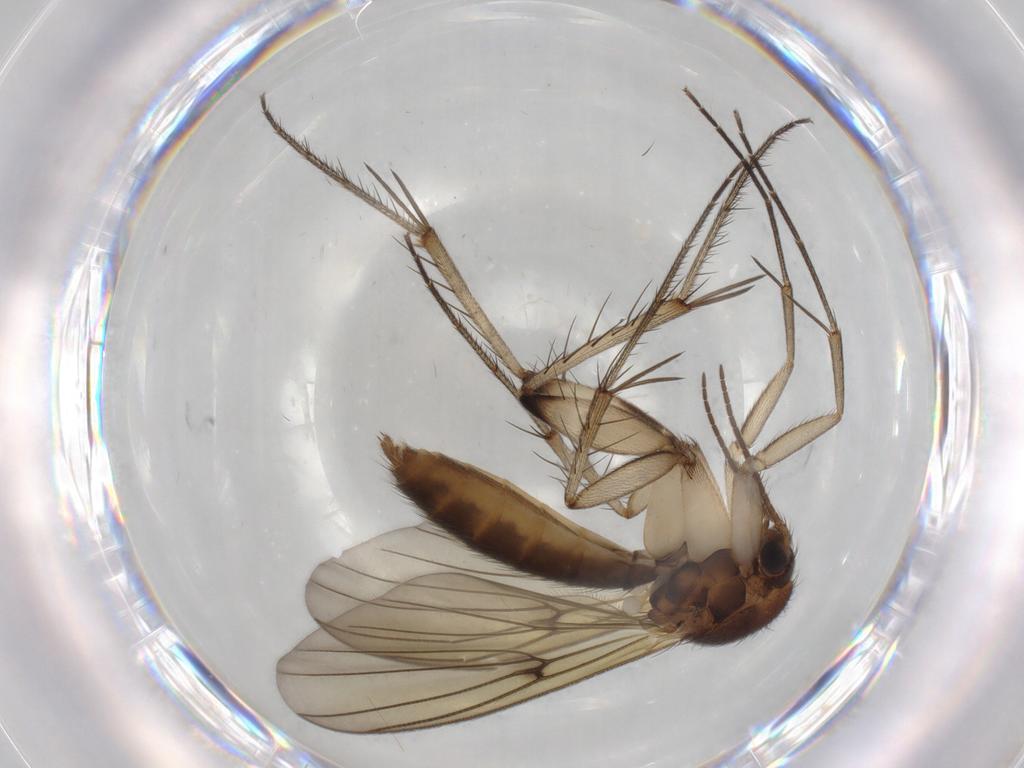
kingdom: Animalia
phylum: Arthropoda
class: Insecta
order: Diptera
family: Mycetophilidae
